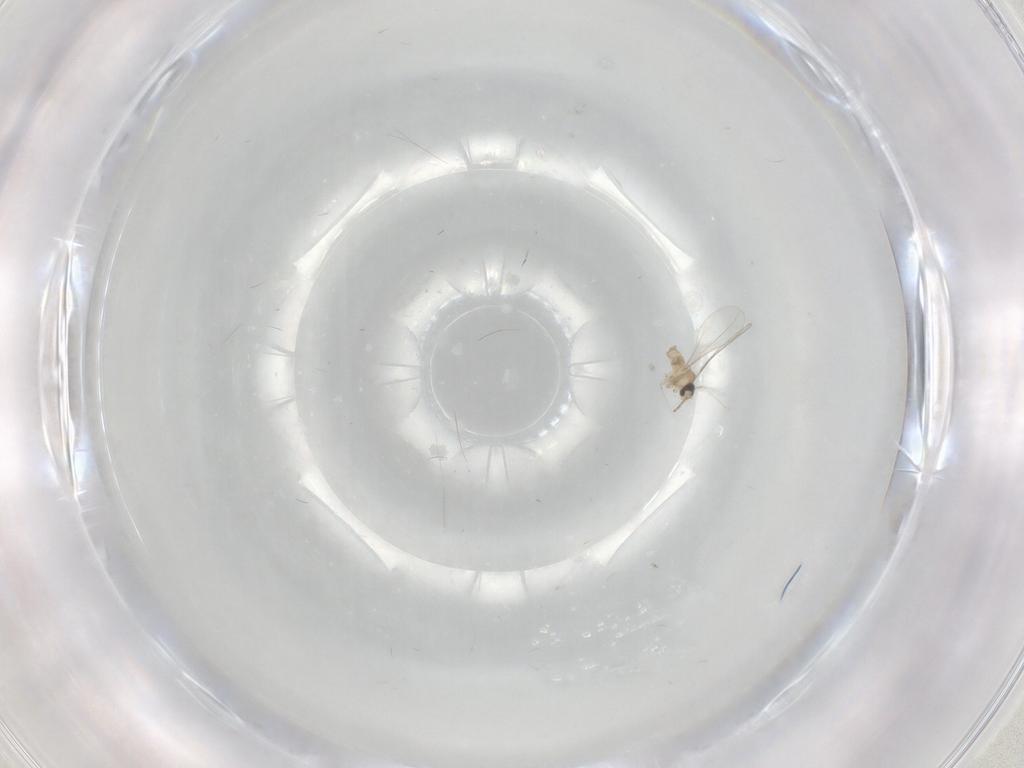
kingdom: Animalia
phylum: Arthropoda
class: Insecta
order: Diptera
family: Cecidomyiidae
